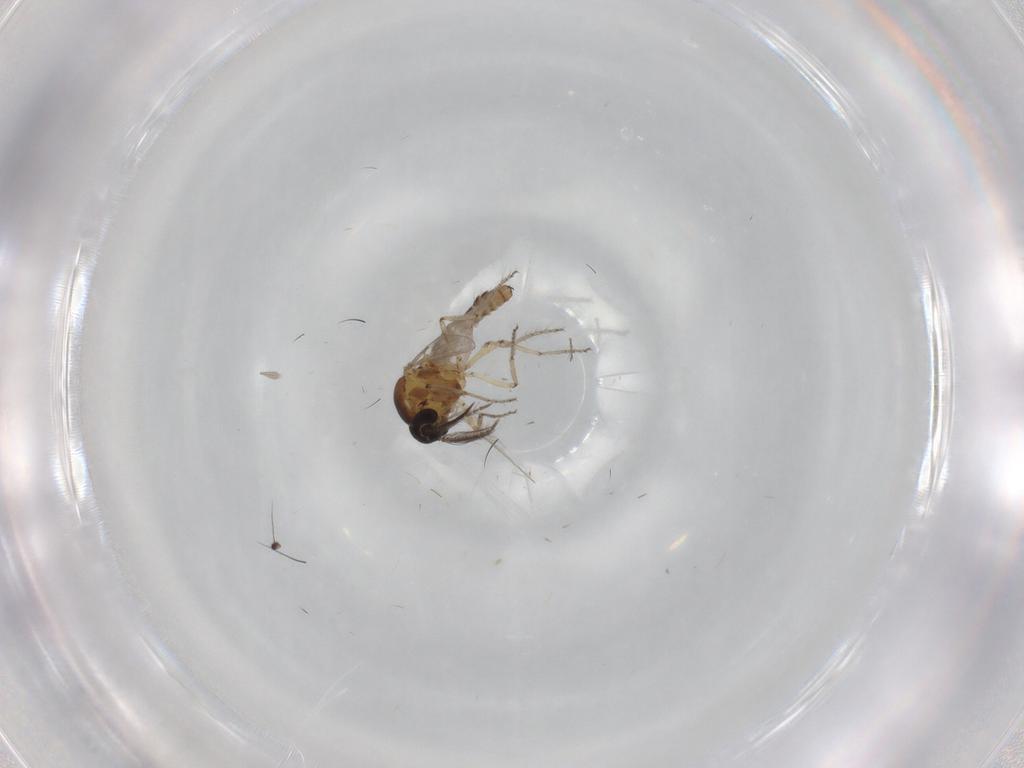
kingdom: Animalia
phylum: Arthropoda
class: Insecta
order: Diptera
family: Ceratopogonidae
